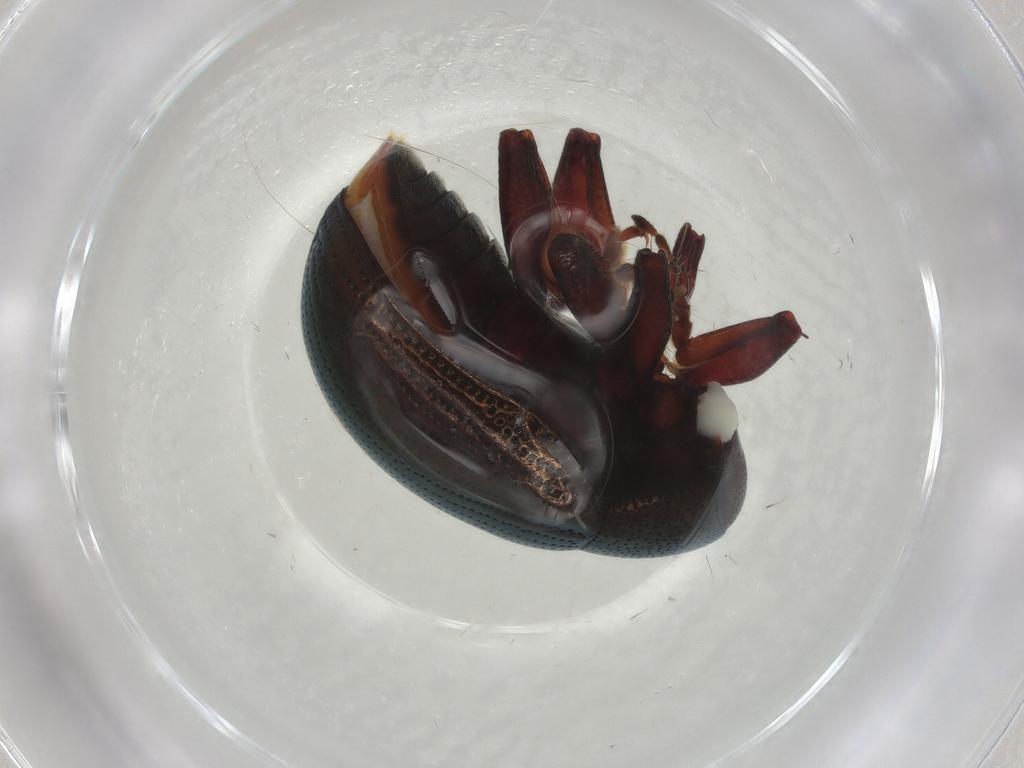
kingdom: Animalia
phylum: Arthropoda
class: Insecta
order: Coleoptera
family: Chrysomelidae
